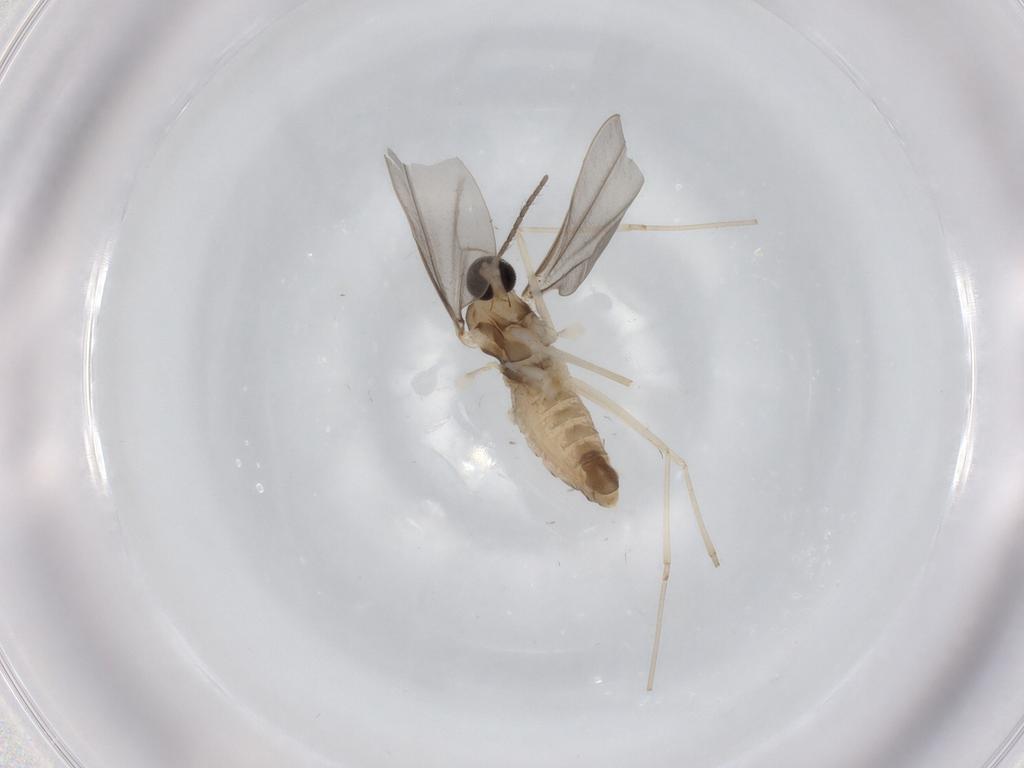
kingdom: Animalia
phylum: Arthropoda
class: Insecta
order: Diptera
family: Cecidomyiidae
